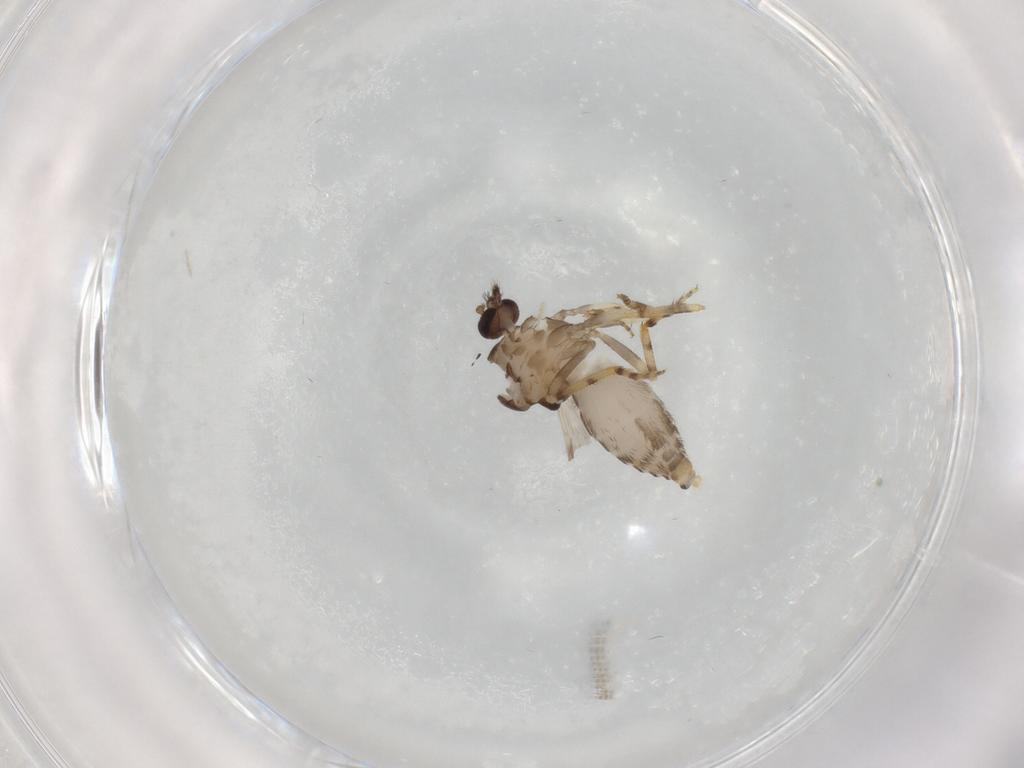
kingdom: Animalia
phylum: Arthropoda
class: Insecta
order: Diptera
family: Ceratopogonidae
